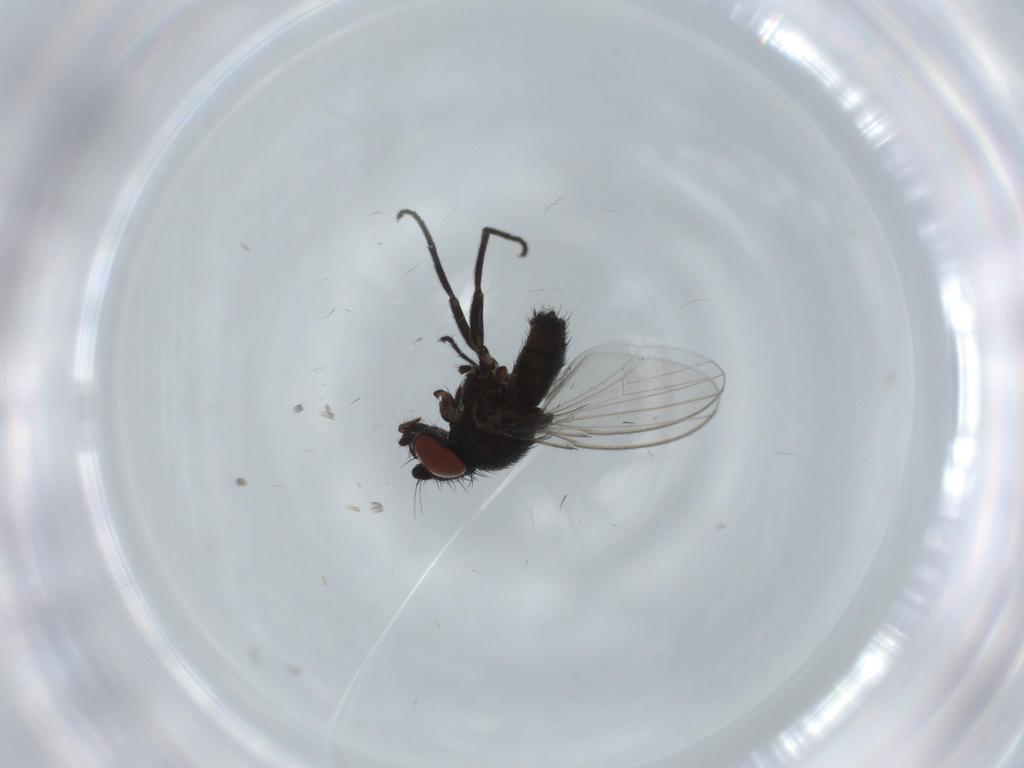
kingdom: Animalia
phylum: Arthropoda
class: Insecta
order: Diptera
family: Milichiidae
